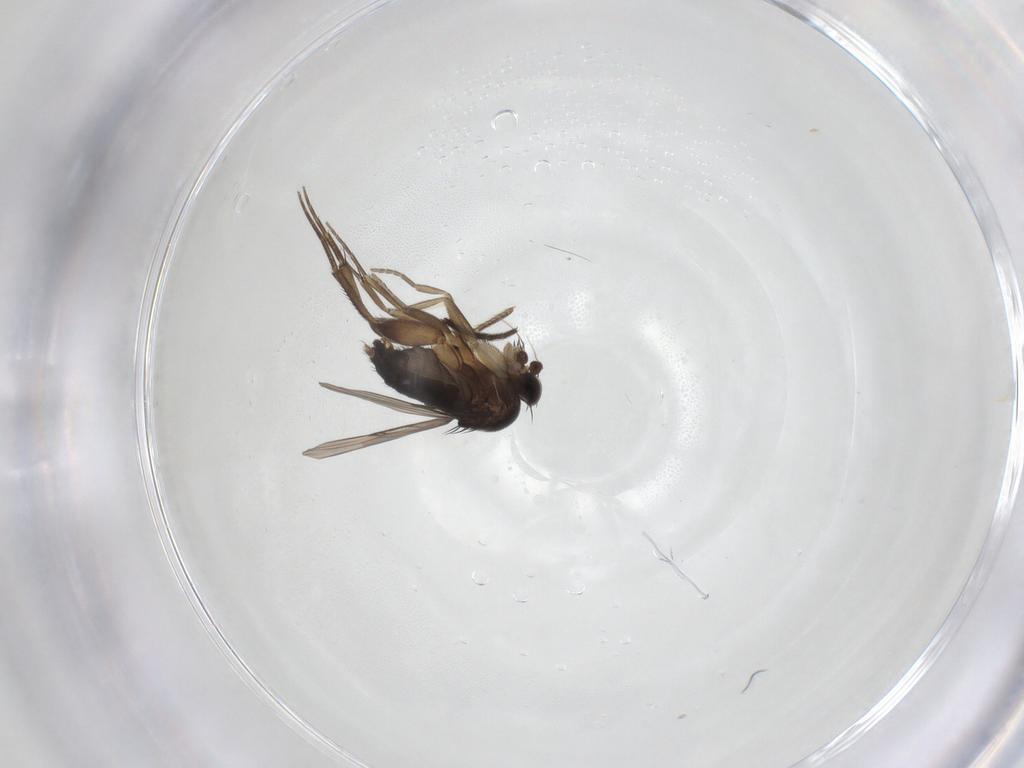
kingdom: Animalia
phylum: Arthropoda
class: Insecta
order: Diptera
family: Phoridae
